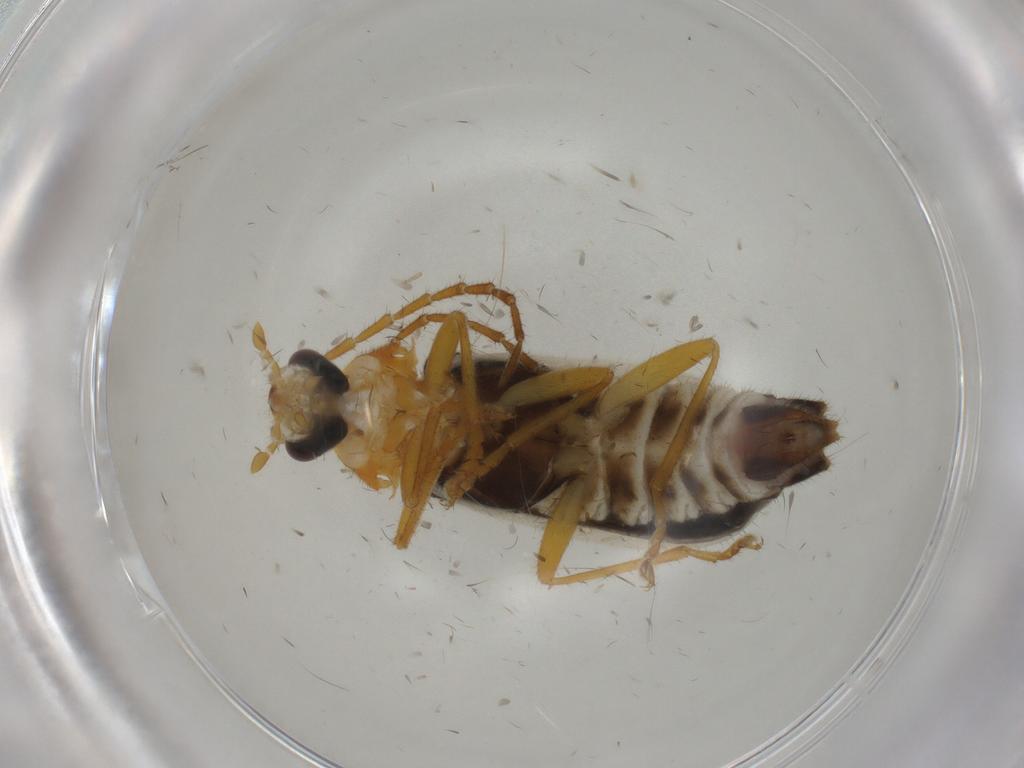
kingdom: Animalia
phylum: Arthropoda
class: Insecta
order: Coleoptera
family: Cantharidae
